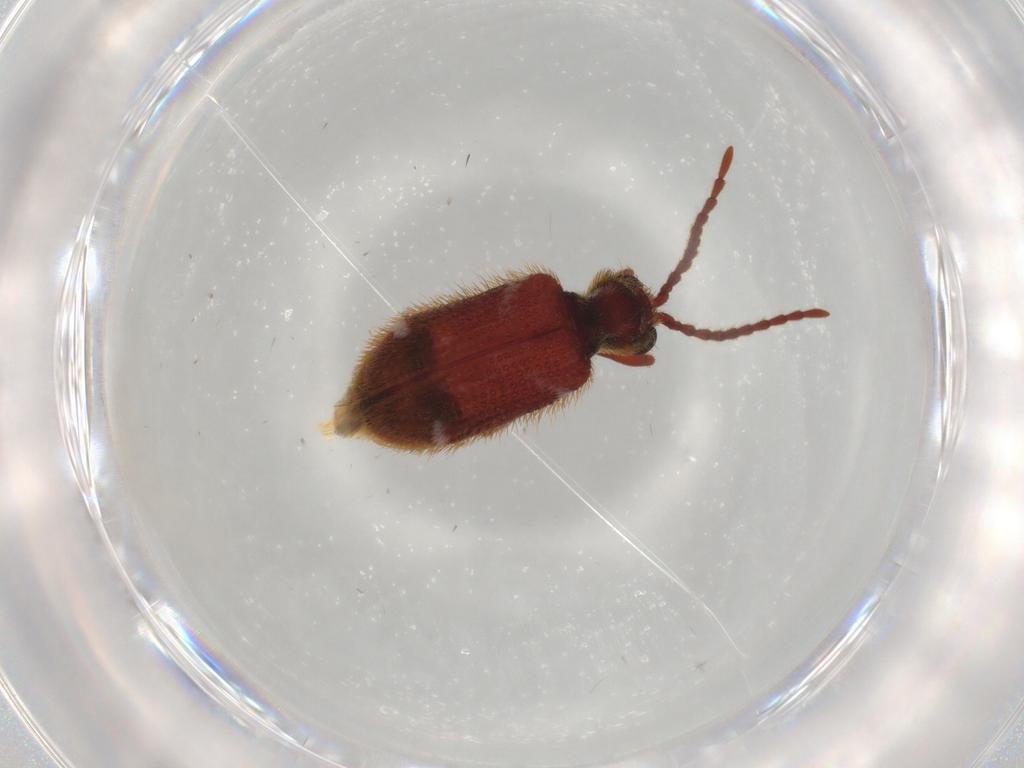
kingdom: Animalia
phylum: Arthropoda
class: Insecta
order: Coleoptera
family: Ptinidae
